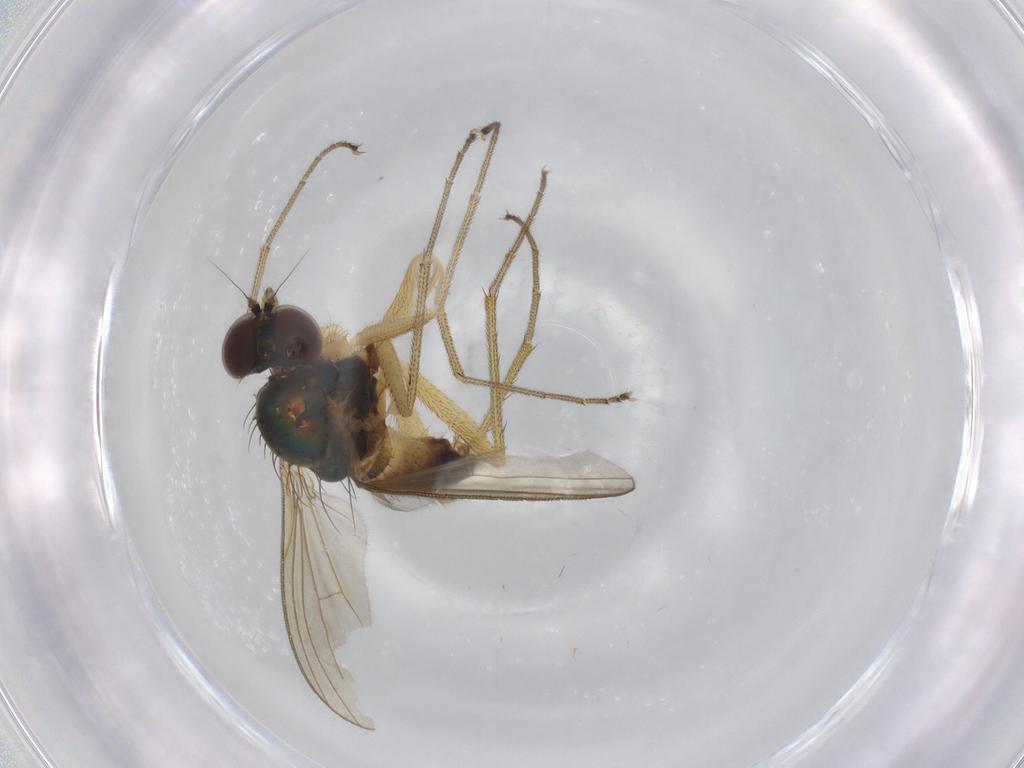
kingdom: Animalia
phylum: Arthropoda
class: Insecta
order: Diptera
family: Dolichopodidae
